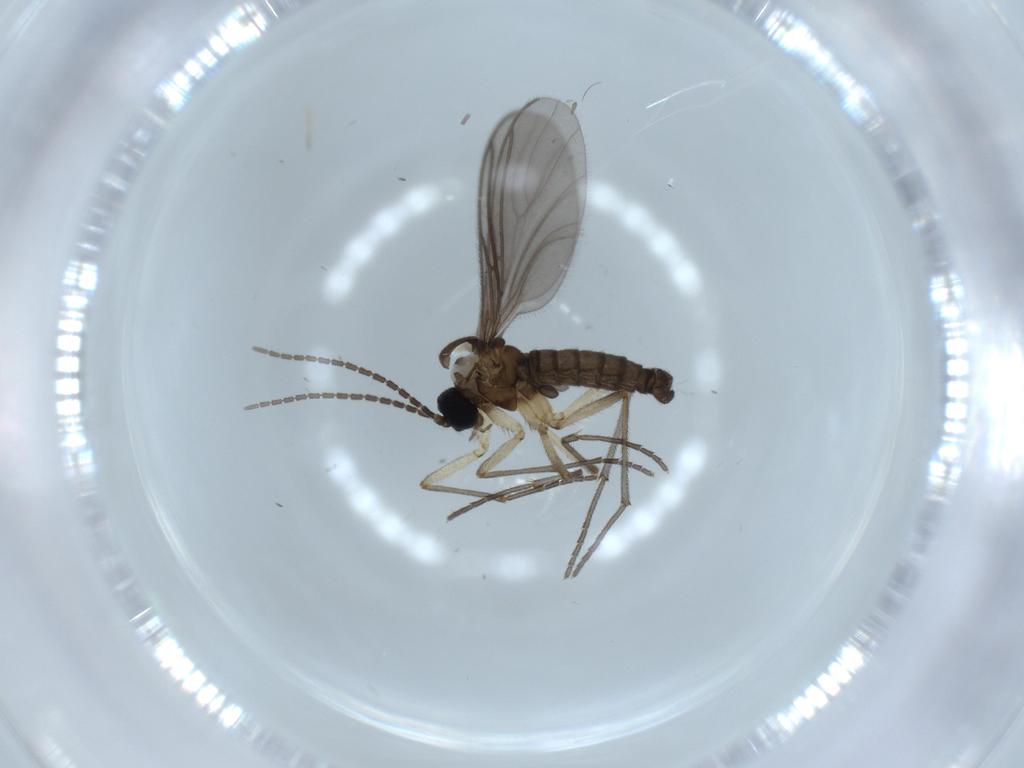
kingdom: Animalia
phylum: Arthropoda
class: Insecta
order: Diptera
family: Sciaridae
